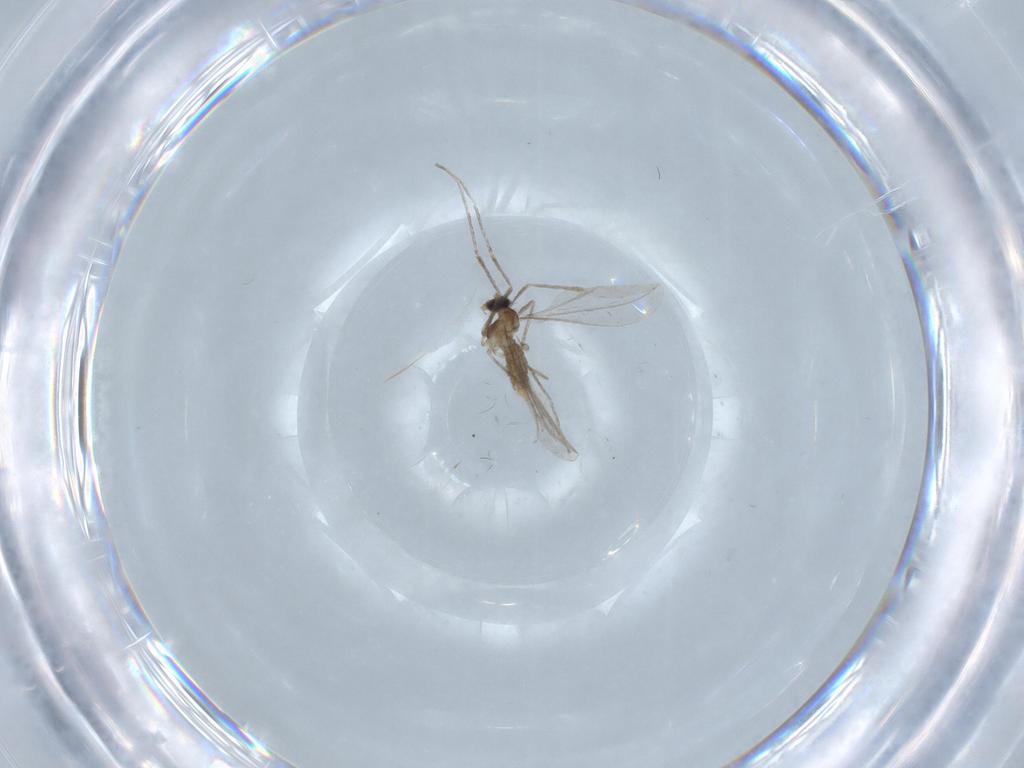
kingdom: Animalia
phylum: Arthropoda
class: Insecta
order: Diptera
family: Cecidomyiidae
